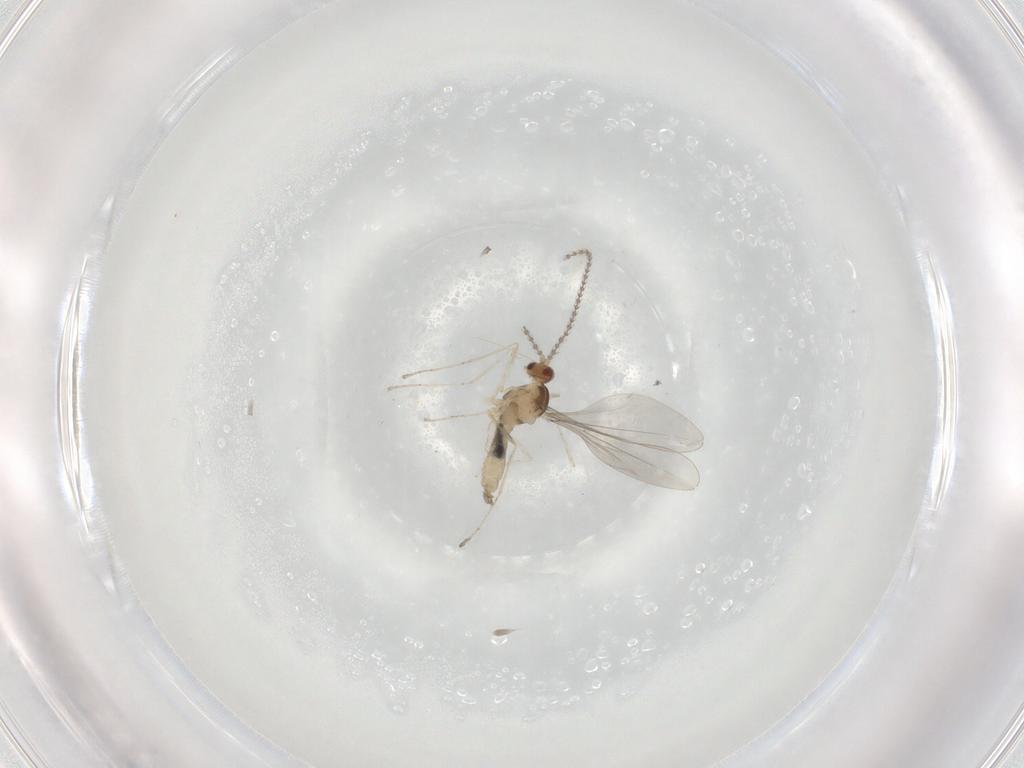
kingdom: Animalia
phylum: Arthropoda
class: Insecta
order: Diptera
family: Cecidomyiidae
